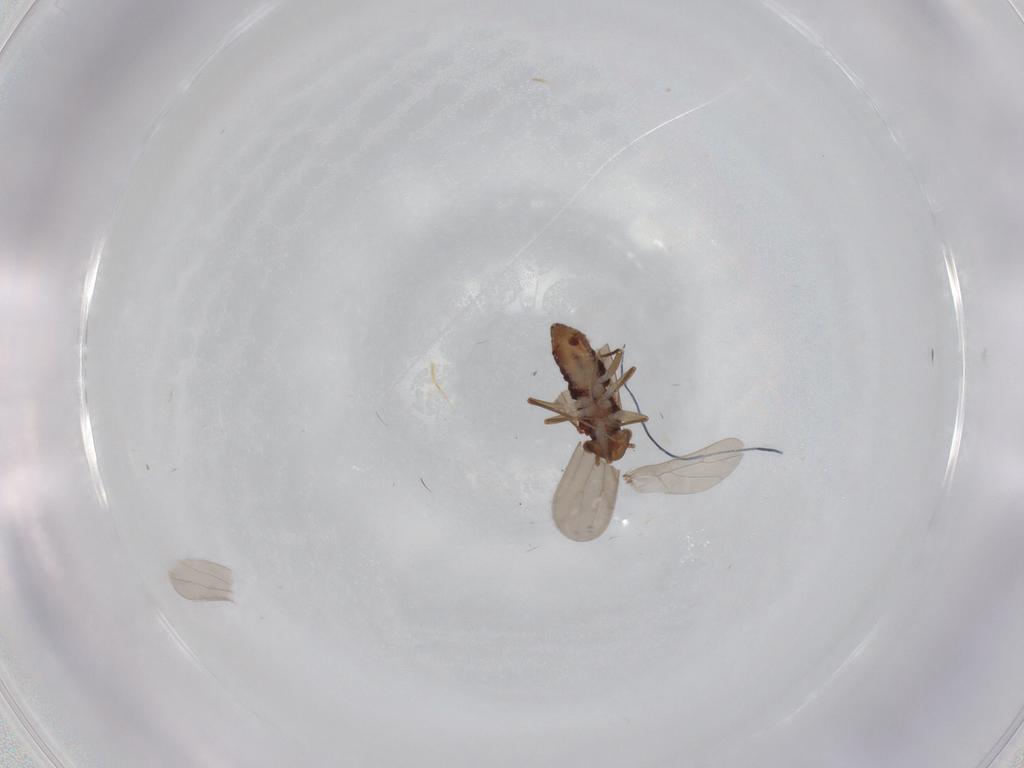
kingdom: Animalia
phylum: Arthropoda
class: Insecta
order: Psocodea
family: Lepidopsocidae
